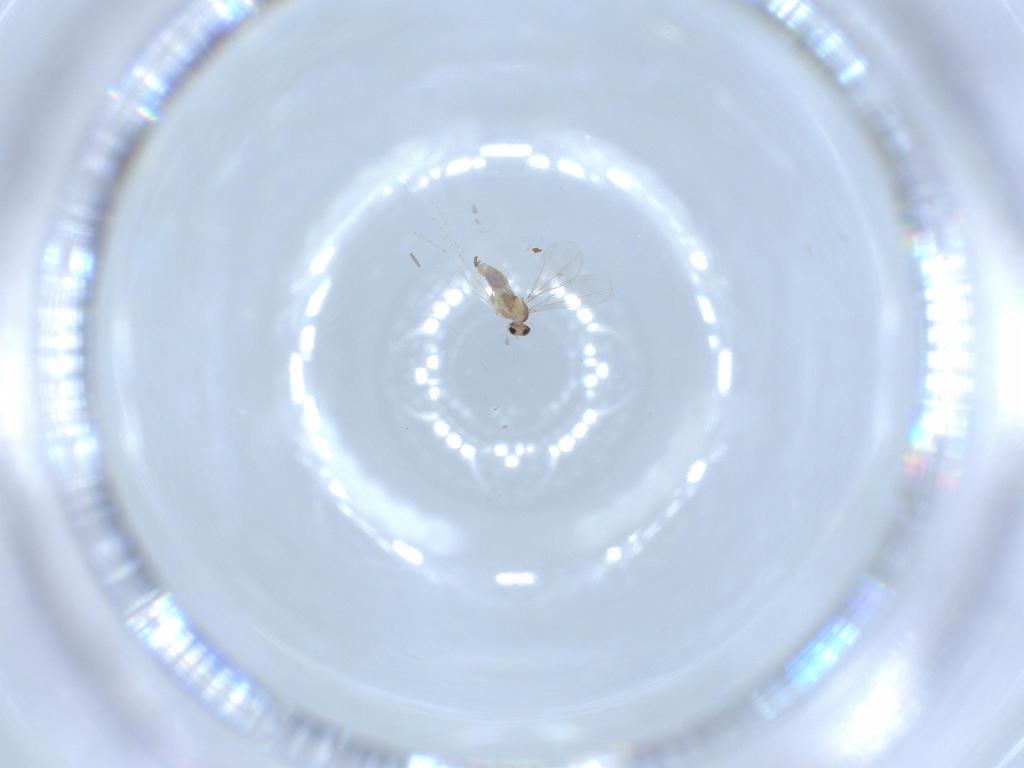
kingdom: Animalia
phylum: Arthropoda
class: Insecta
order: Diptera
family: Cecidomyiidae
